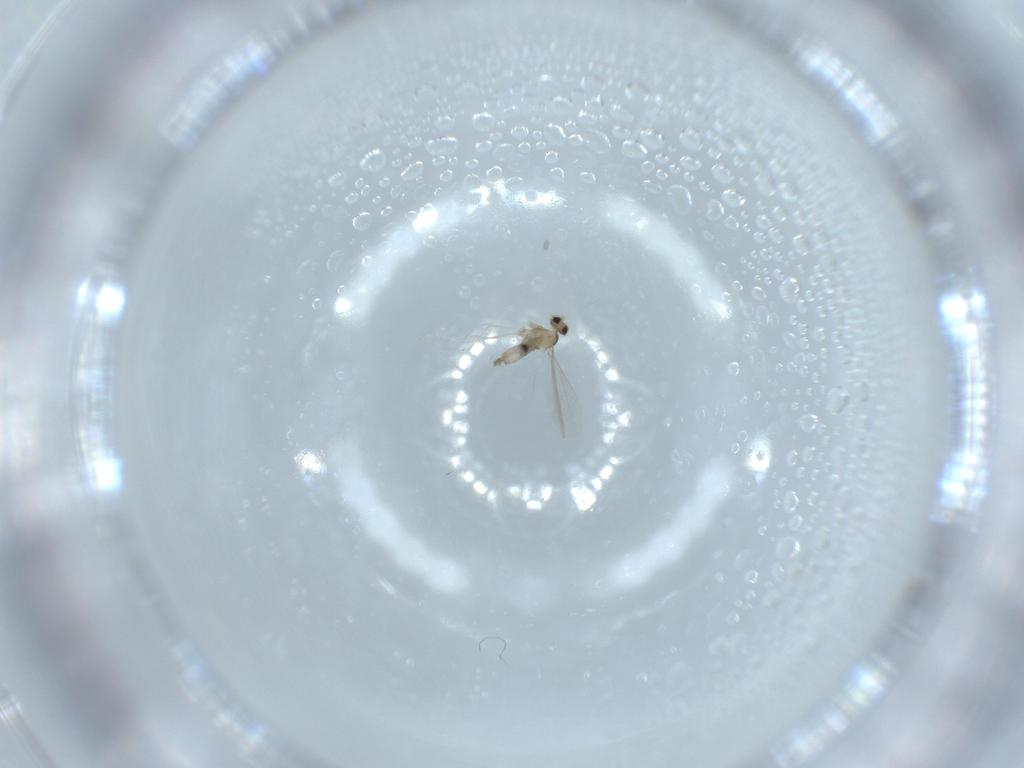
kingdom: Animalia
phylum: Arthropoda
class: Insecta
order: Diptera
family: Cecidomyiidae
